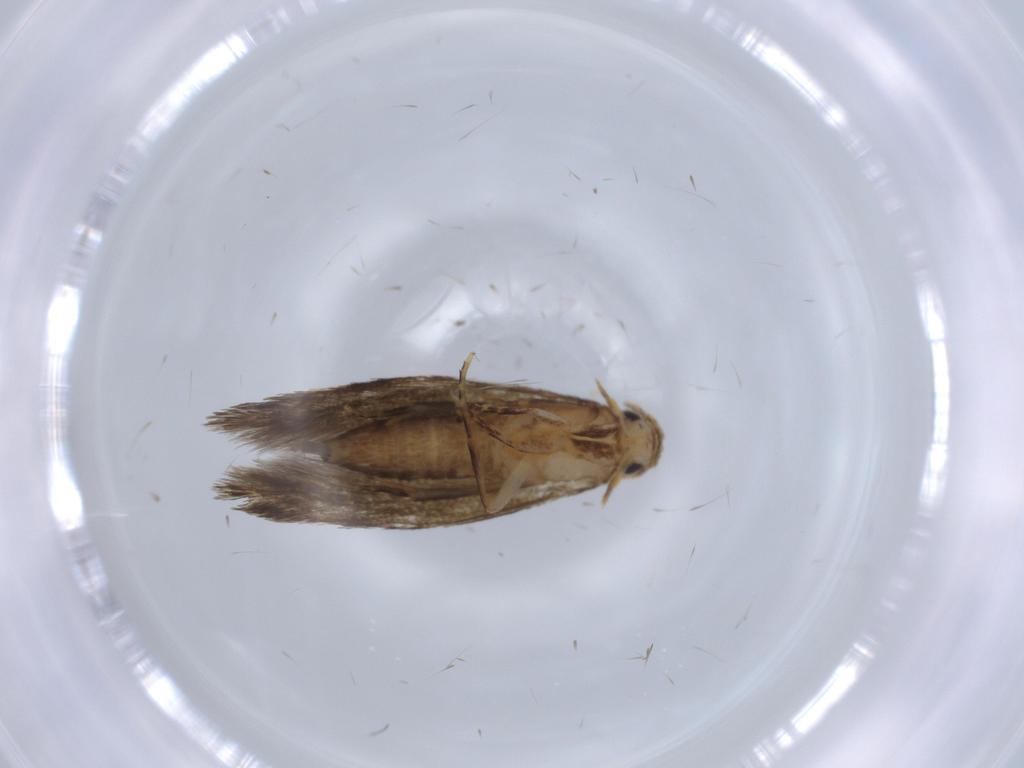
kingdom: Animalia
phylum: Arthropoda
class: Insecta
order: Lepidoptera
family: Tineidae
